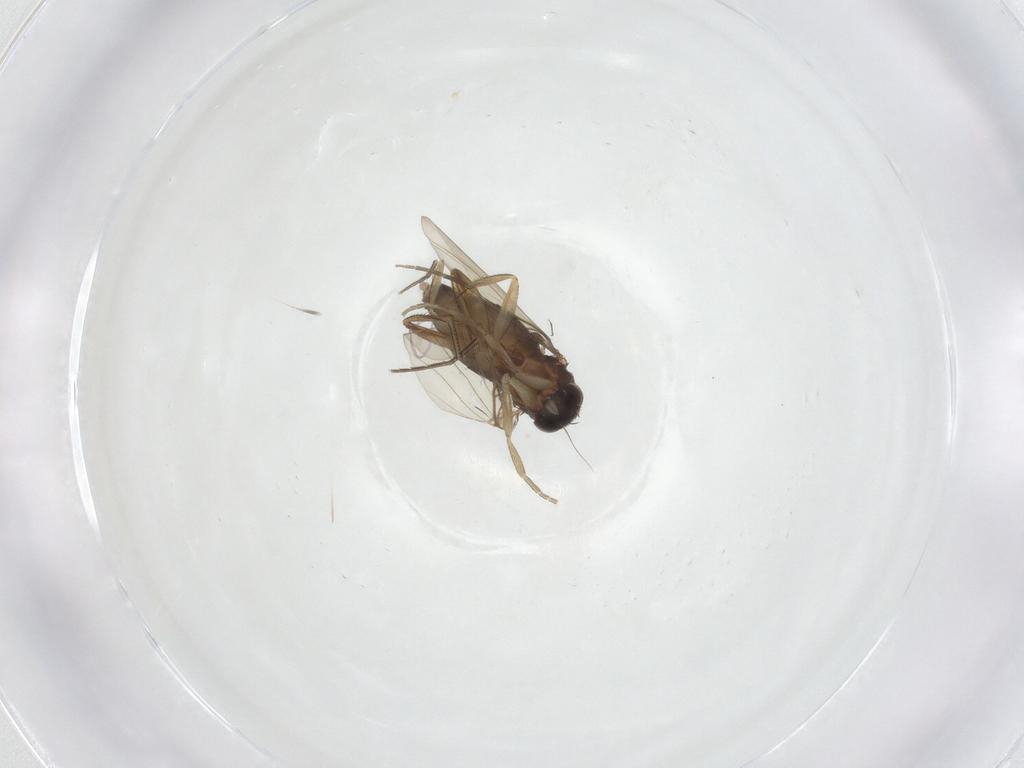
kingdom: Animalia
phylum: Arthropoda
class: Insecta
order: Diptera
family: Phoridae
